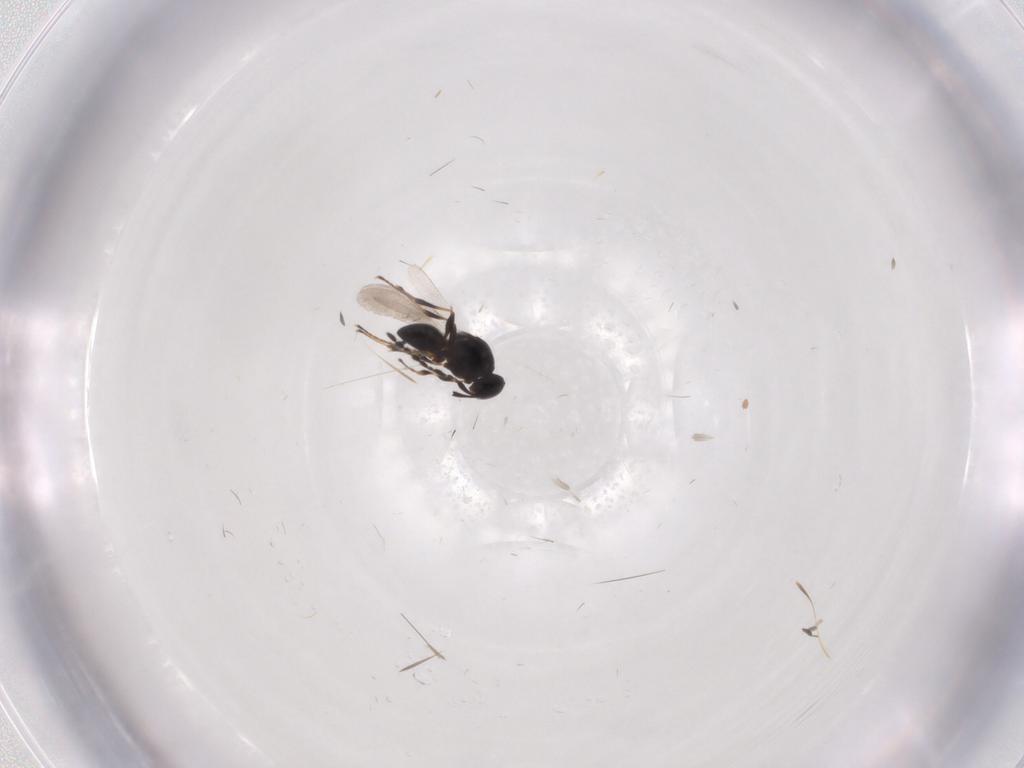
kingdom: Animalia
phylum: Arthropoda
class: Insecta
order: Hymenoptera
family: Platygastridae
